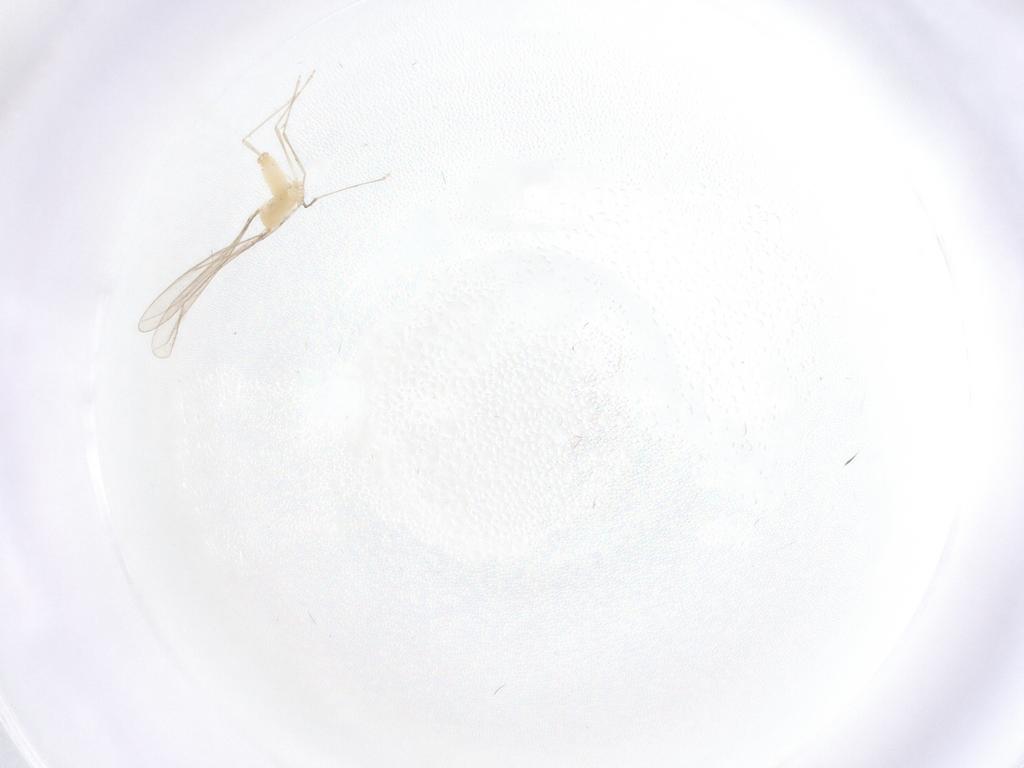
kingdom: Animalia
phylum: Arthropoda
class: Insecta
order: Diptera
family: Cecidomyiidae
